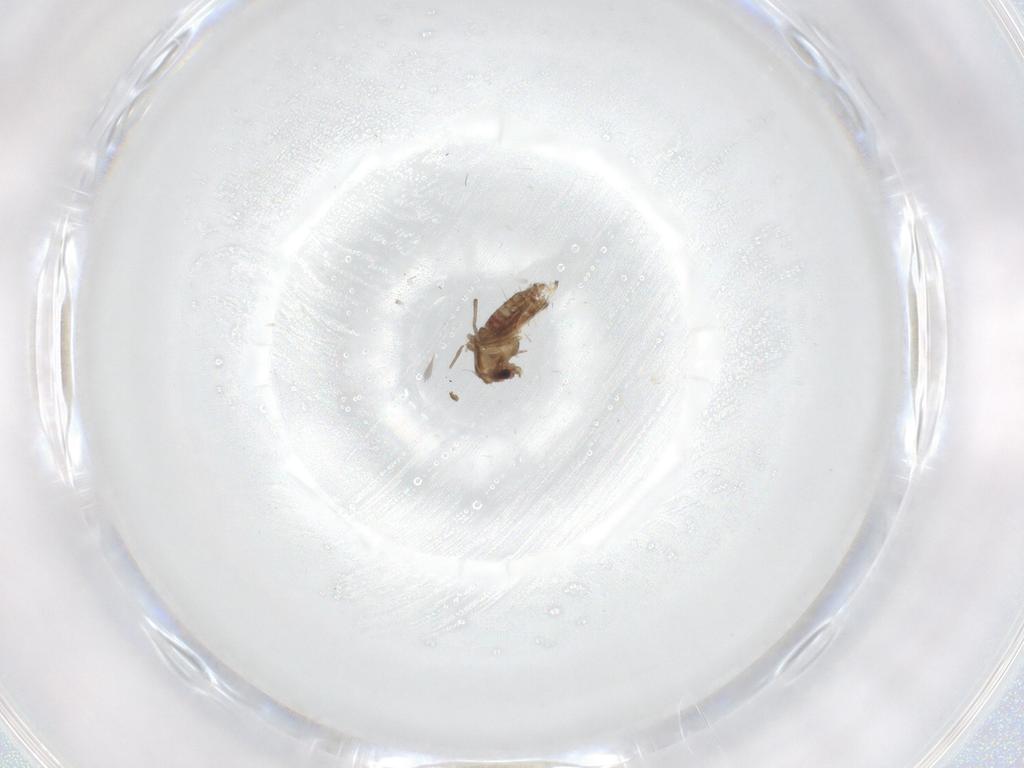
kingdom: Animalia
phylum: Arthropoda
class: Insecta
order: Diptera
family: Chironomidae
